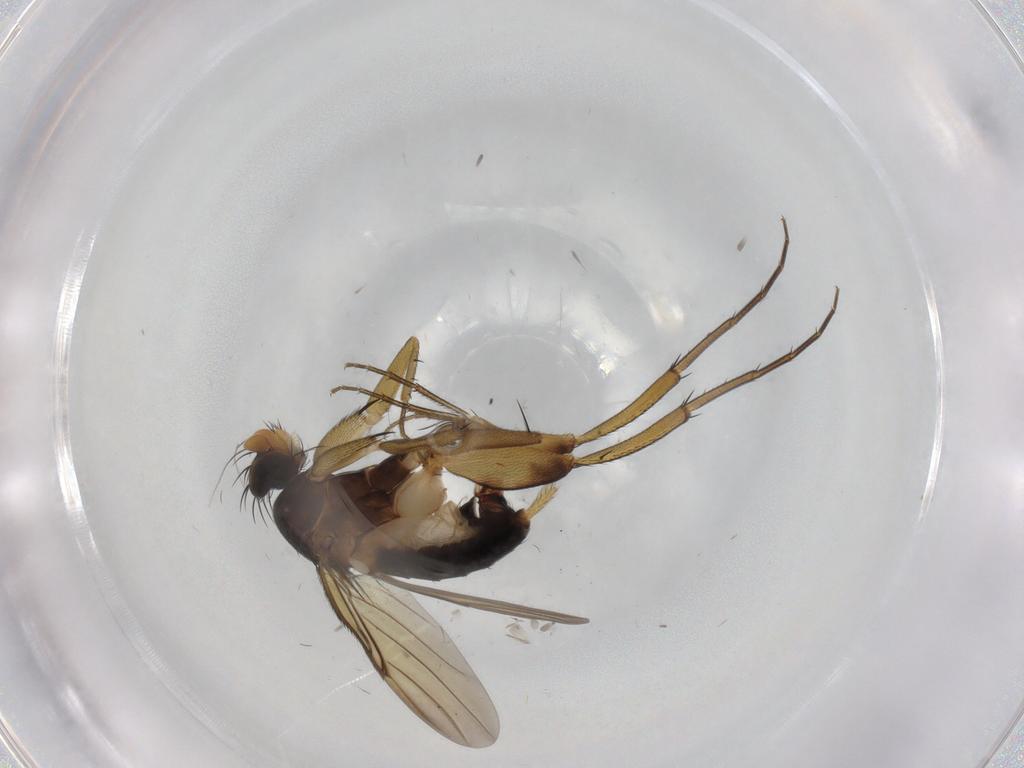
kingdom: Animalia
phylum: Arthropoda
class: Insecta
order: Diptera
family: Phoridae
